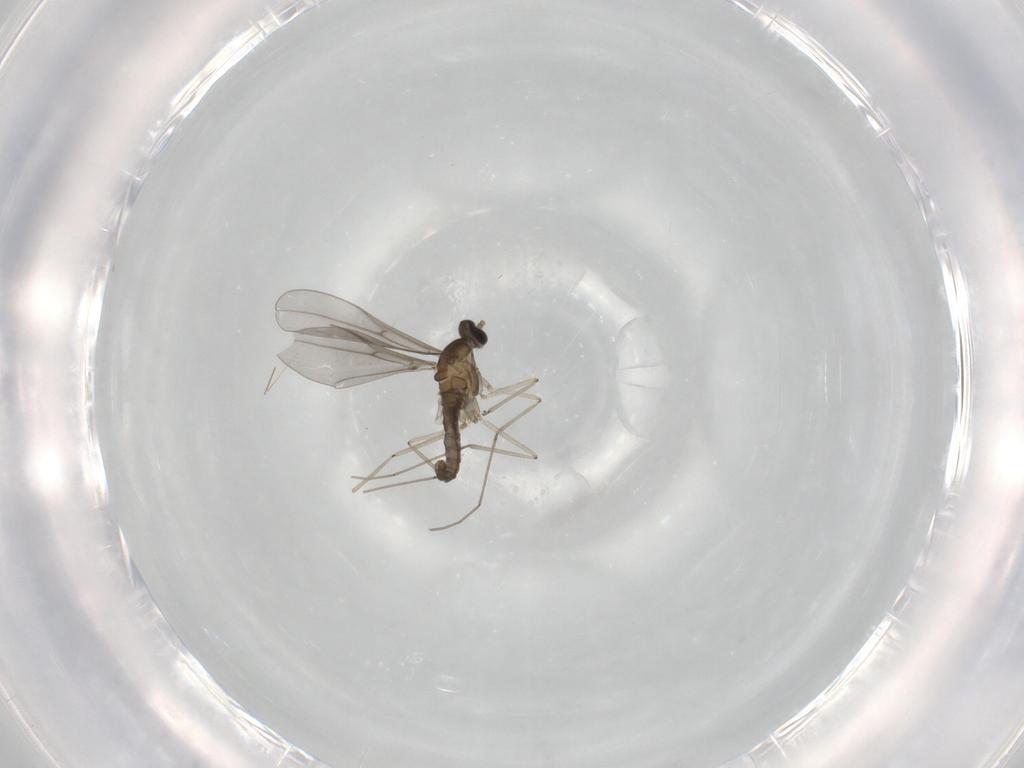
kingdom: Animalia
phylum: Arthropoda
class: Insecta
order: Diptera
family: Cecidomyiidae
